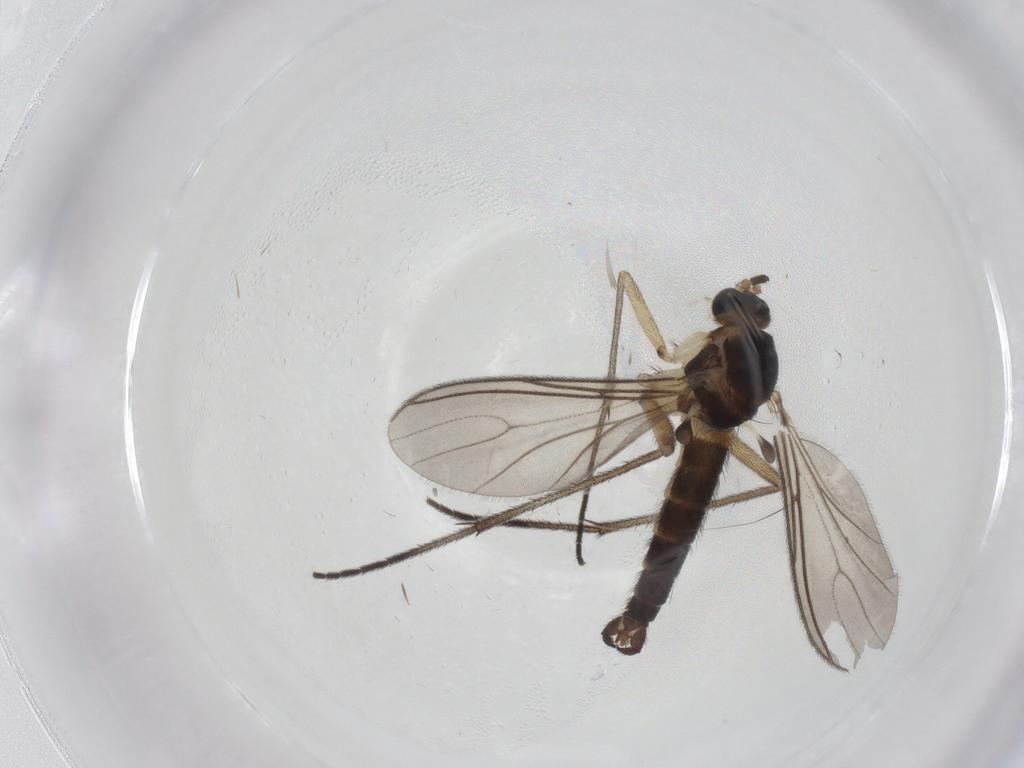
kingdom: Animalia
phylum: Arthropoda
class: Insecta
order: Diptera
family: Sciaridae
